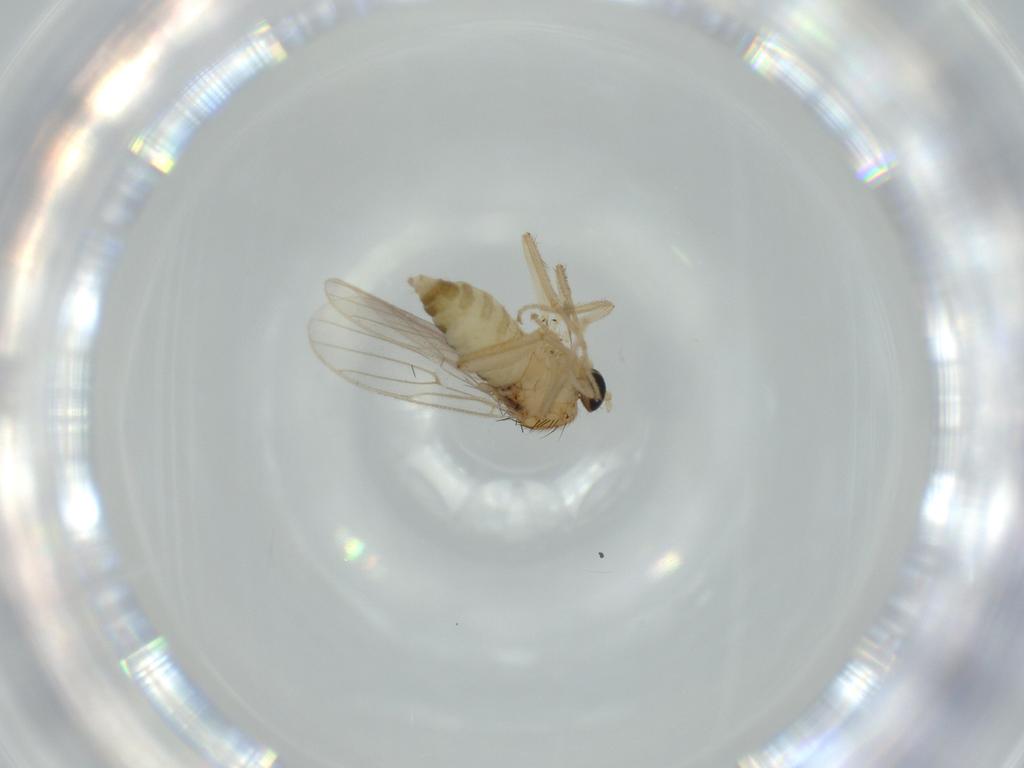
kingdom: Animalia
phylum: Arthropoda
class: Insecta
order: Diptera
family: Hybotidae
